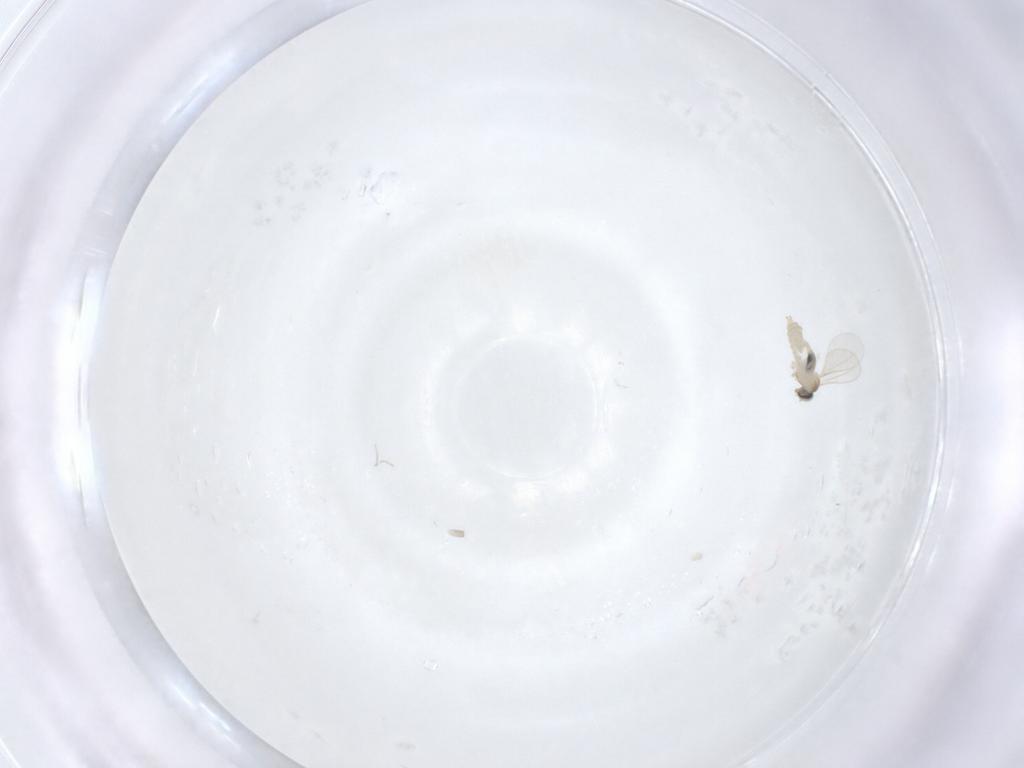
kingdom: Animalia
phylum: Arthropoda
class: Insecta
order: Diptera
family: Cecidomyiidae
